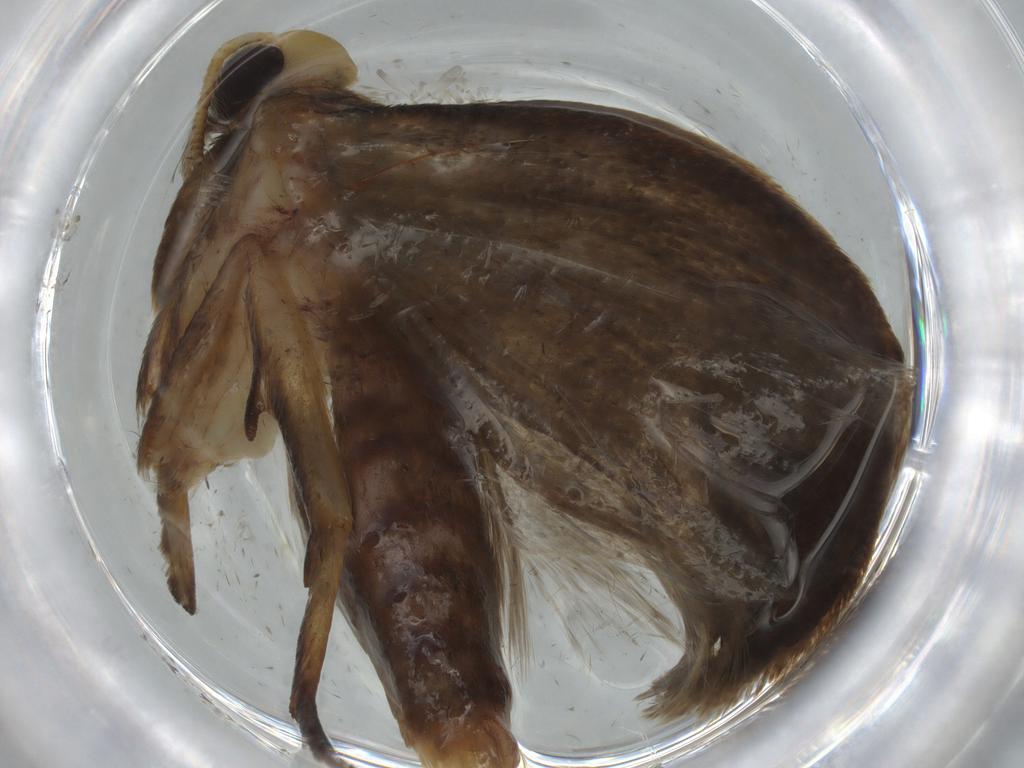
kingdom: Animalia
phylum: Arthropoda
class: Insecta
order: Lepidoptera
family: Oecophoridae
